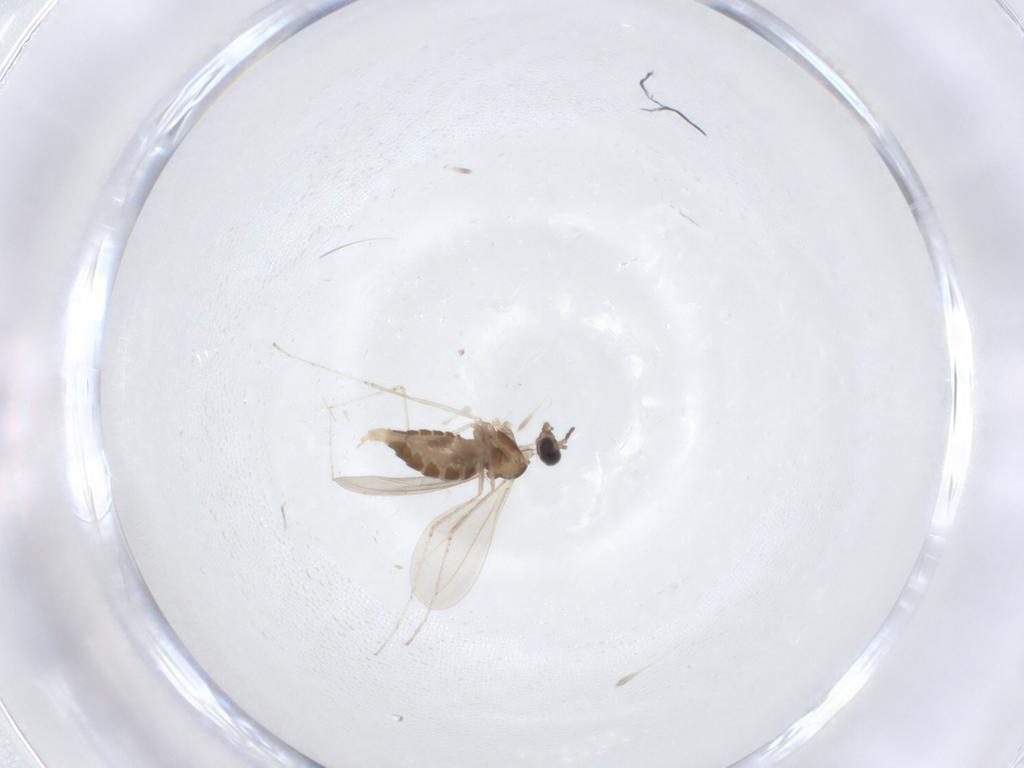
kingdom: Animalia
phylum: Arthropoda
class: Insecta
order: Diptera
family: Cecidomyiidae
